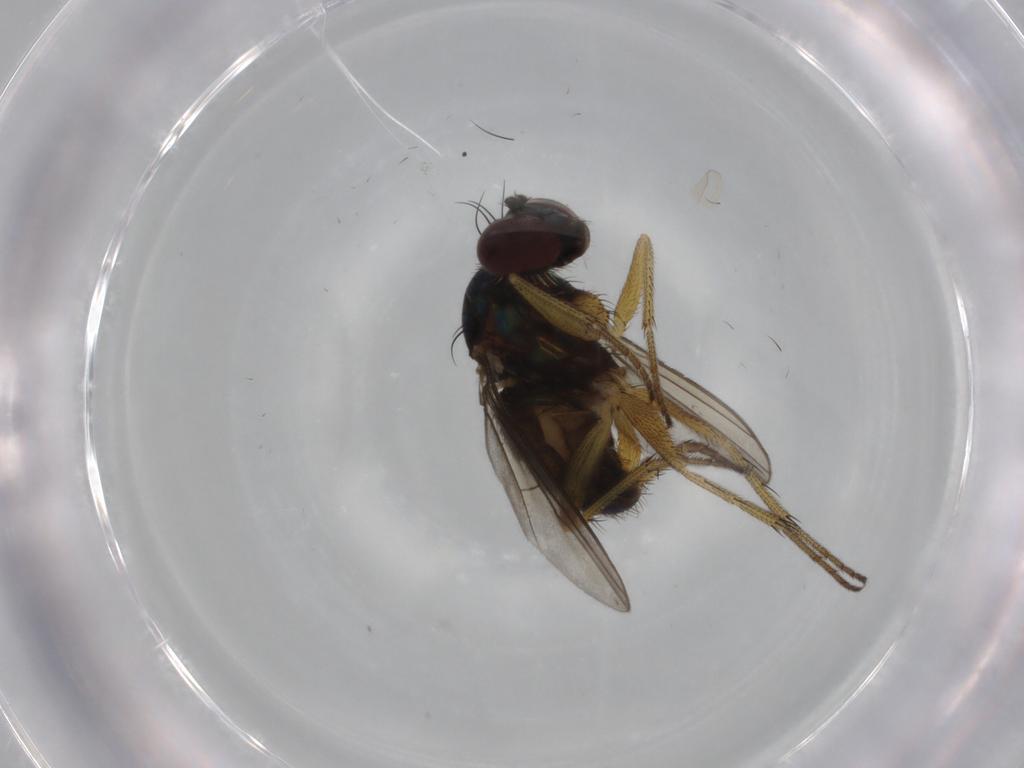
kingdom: Animalia
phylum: Arthropoda
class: Insecta
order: Diptera
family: Dolichopodidae
